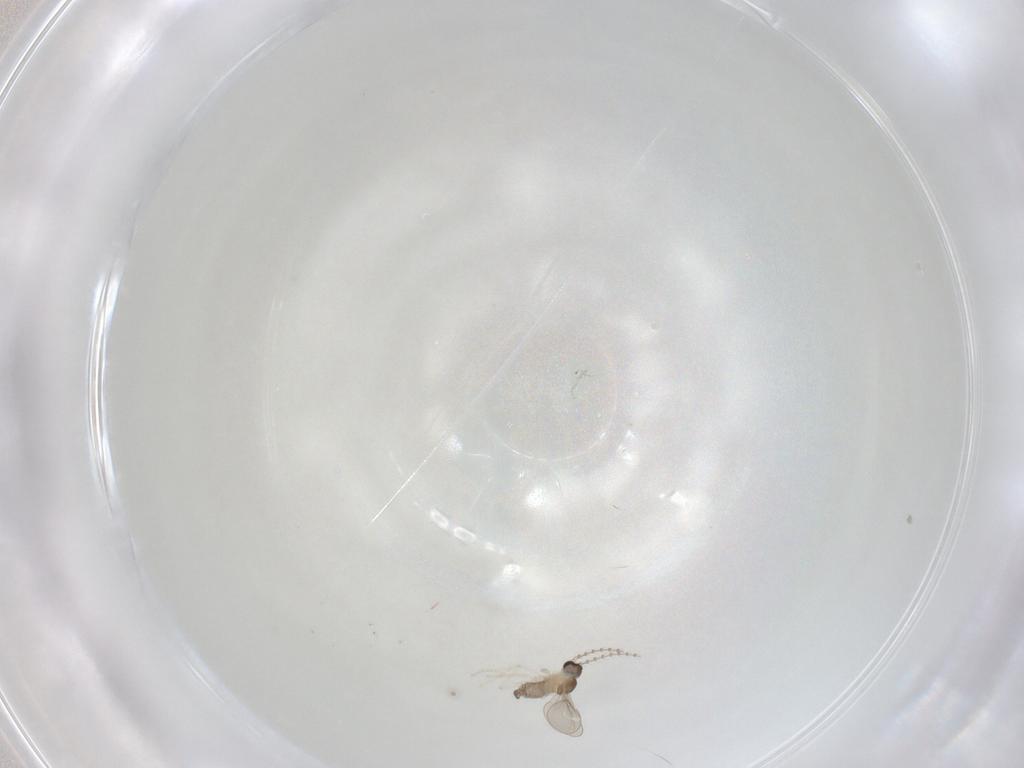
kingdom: Animalia
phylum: Arthropoda
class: Insecta
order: Diptera
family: Cecidomyiidae
